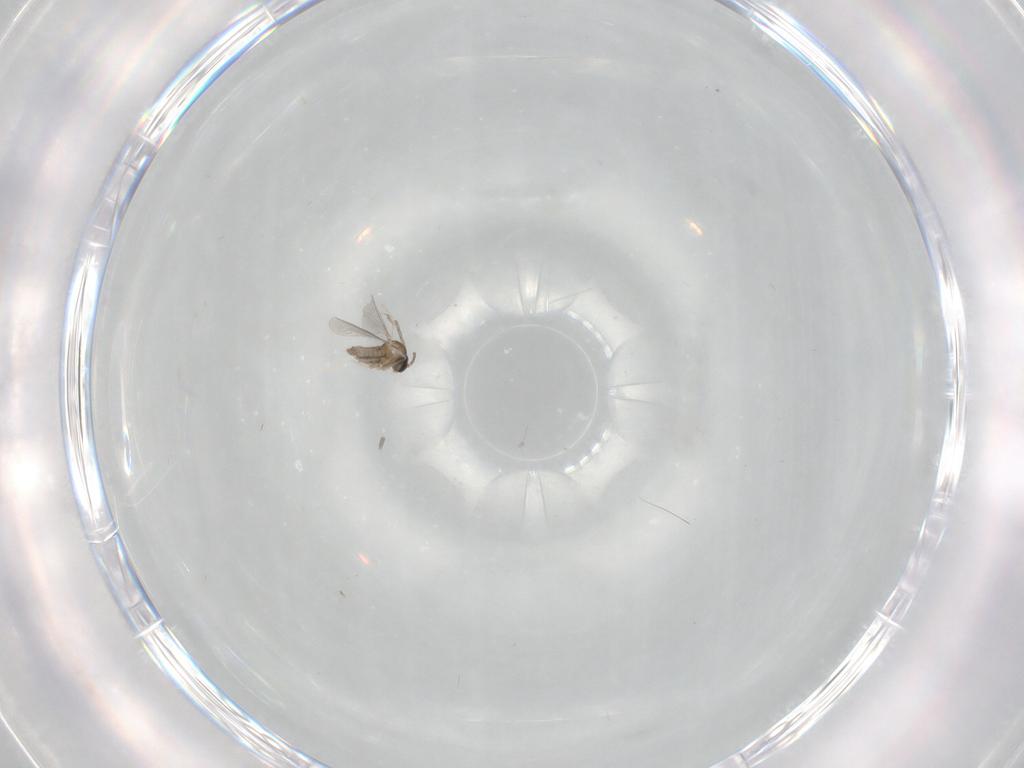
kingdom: Animalia
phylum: Arthropoda
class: Insecta
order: Diptera
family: Cecidomyiidae
